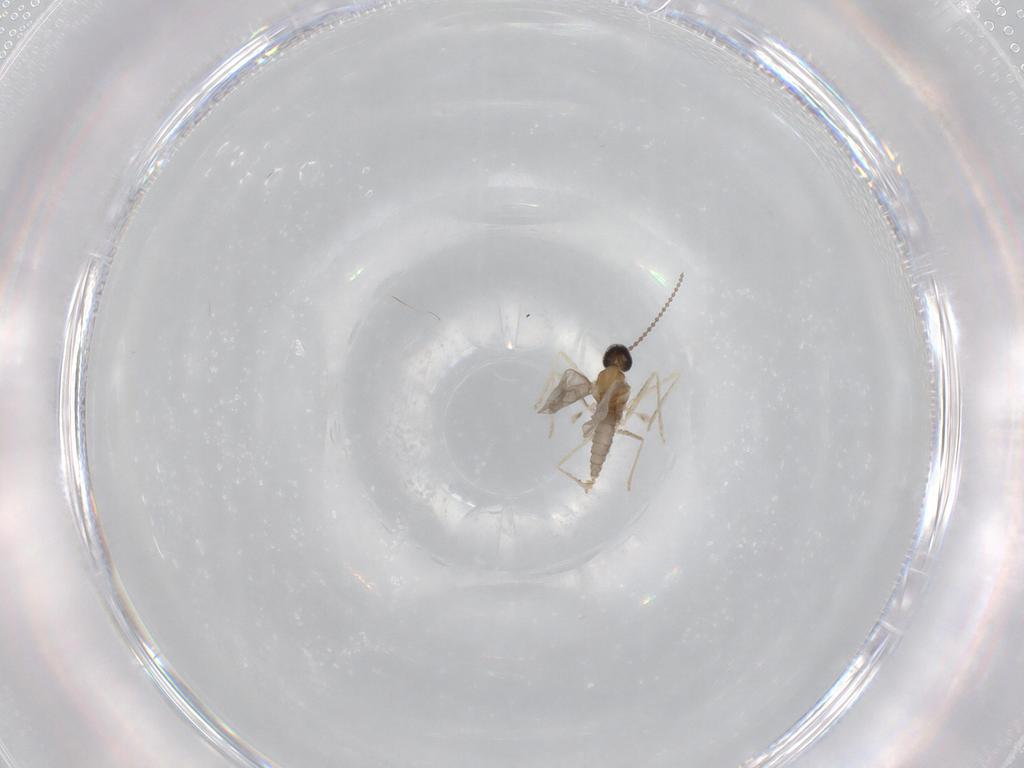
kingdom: Animalia
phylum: Arthropoda
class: Insecta
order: Diptera
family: Cecidomyiidae
